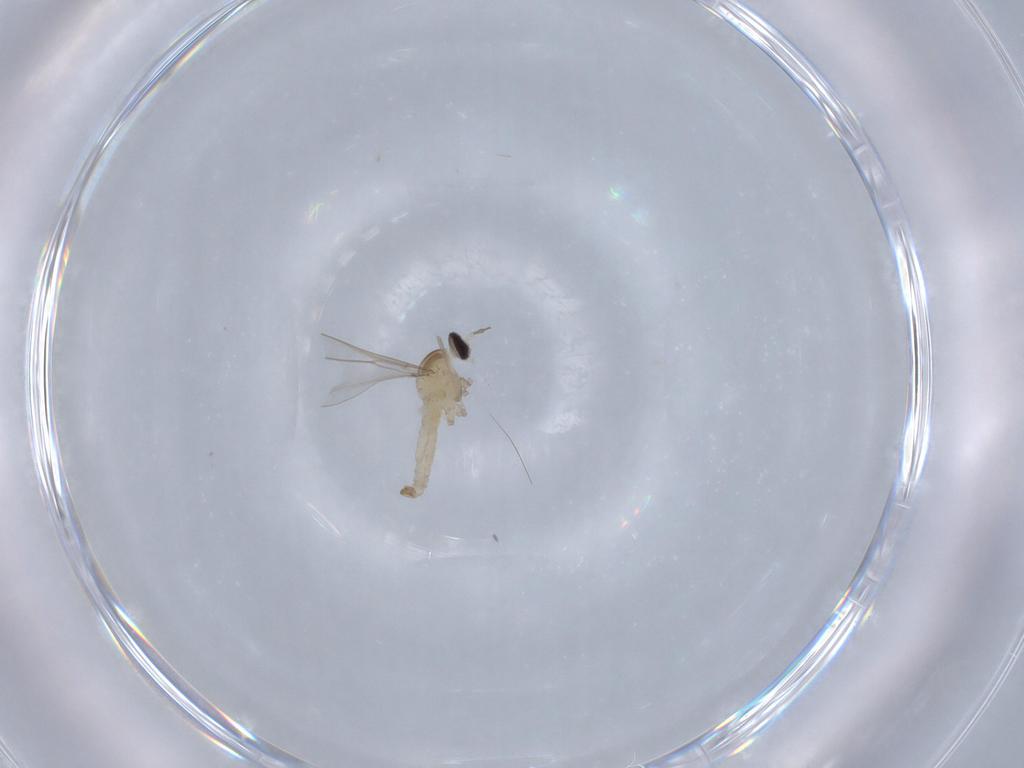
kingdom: Animalia
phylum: Arthropoda
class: Insecta
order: Diptera
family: Cecidomyiidae
